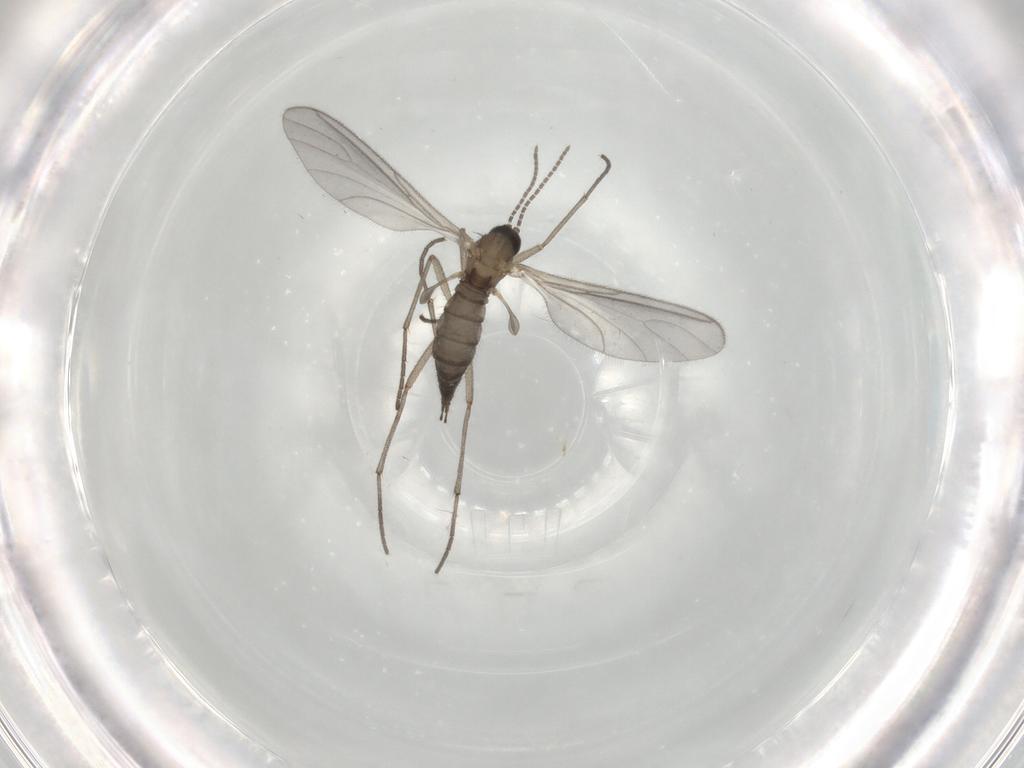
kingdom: Animalia
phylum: Arthropoda
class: Insecta
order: Diptera
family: Sciaridae
